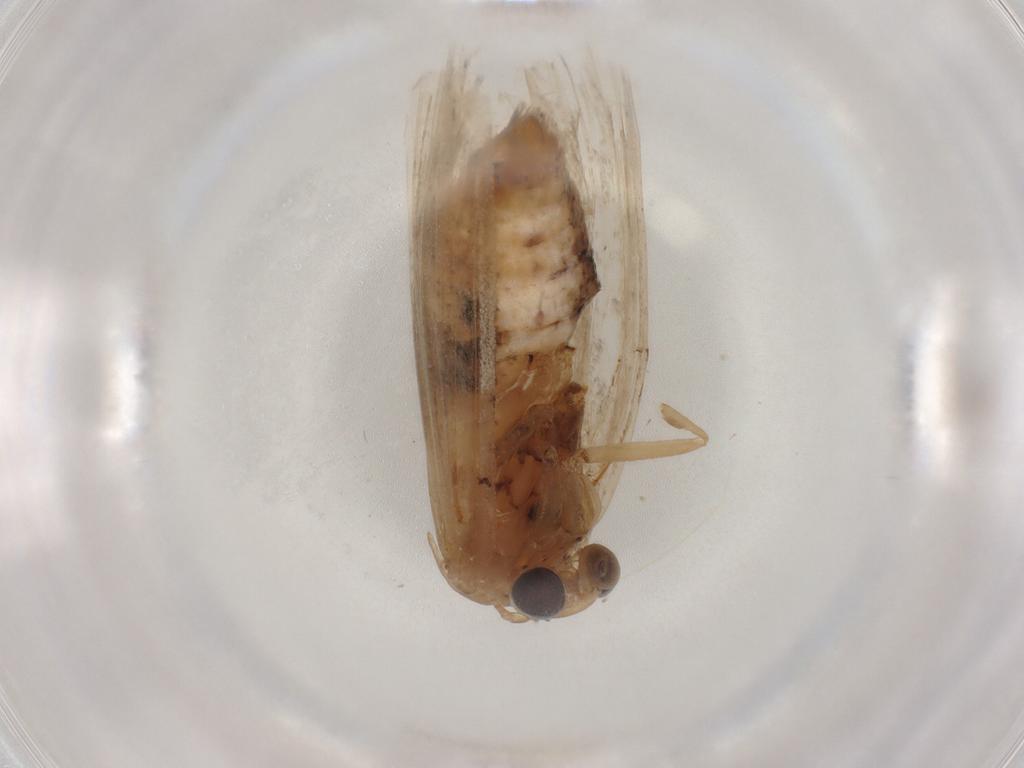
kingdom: Animalia
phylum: Arthropoda
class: Insecta
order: Lepidoptera
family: Nolidae
